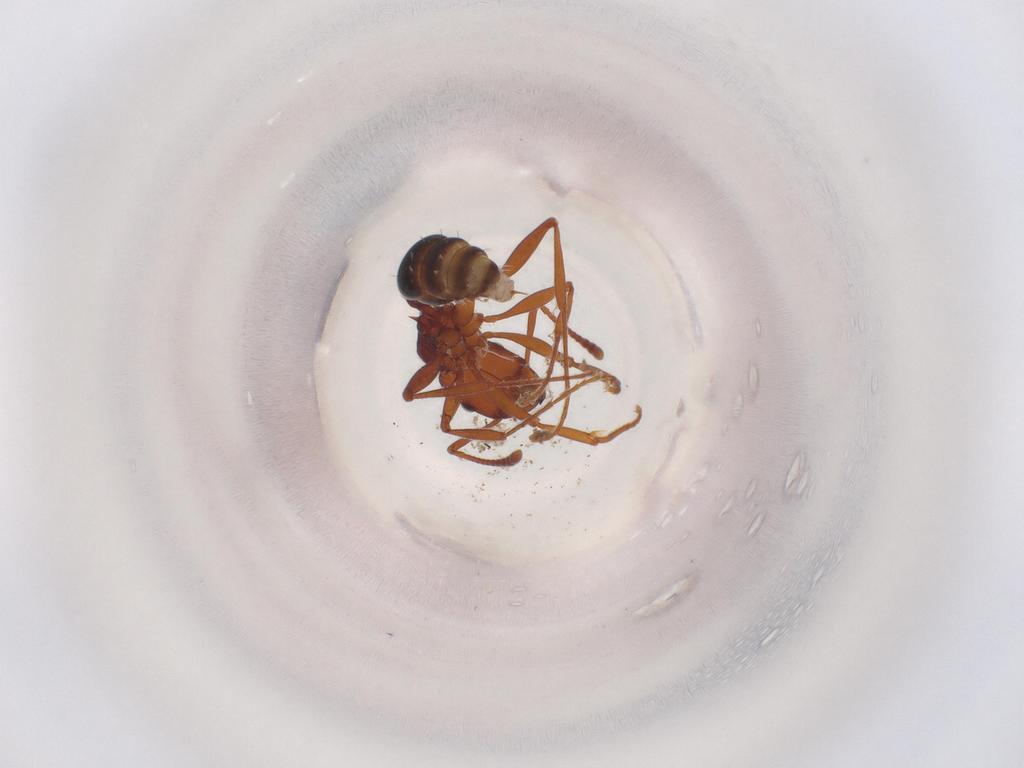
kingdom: Animalia
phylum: Arthropoda
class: Insecta
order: Hymenoptera
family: Formicidae
